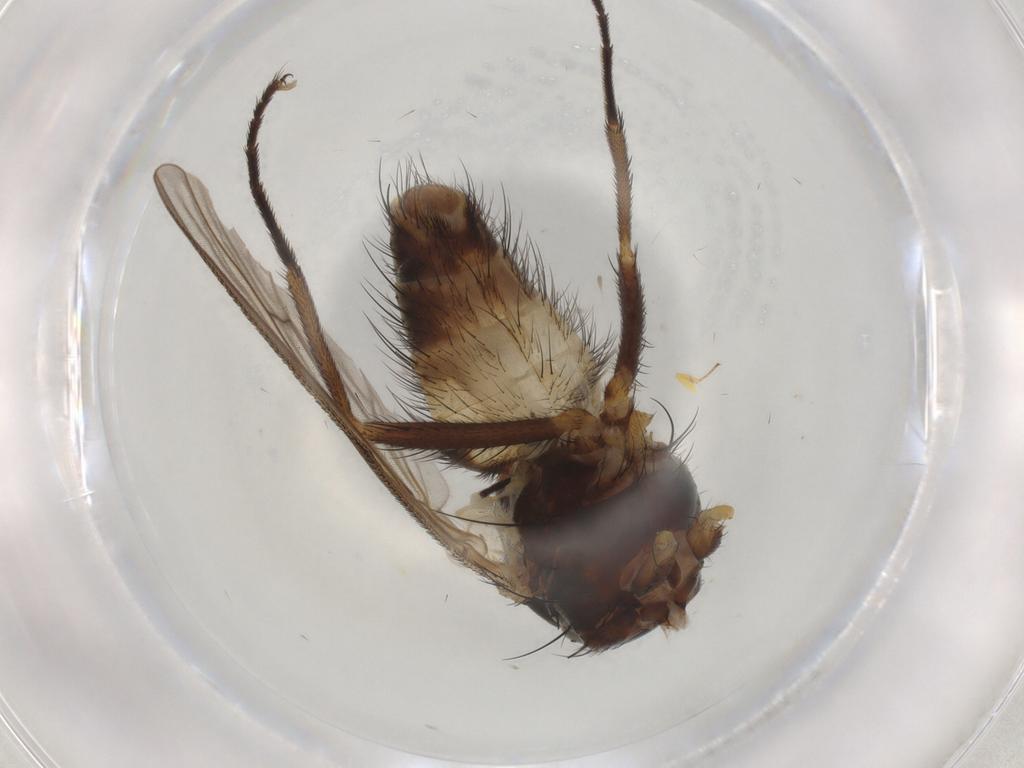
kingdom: Animalia
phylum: Arthropoda
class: Insecta
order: Diptera
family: Muscidae
